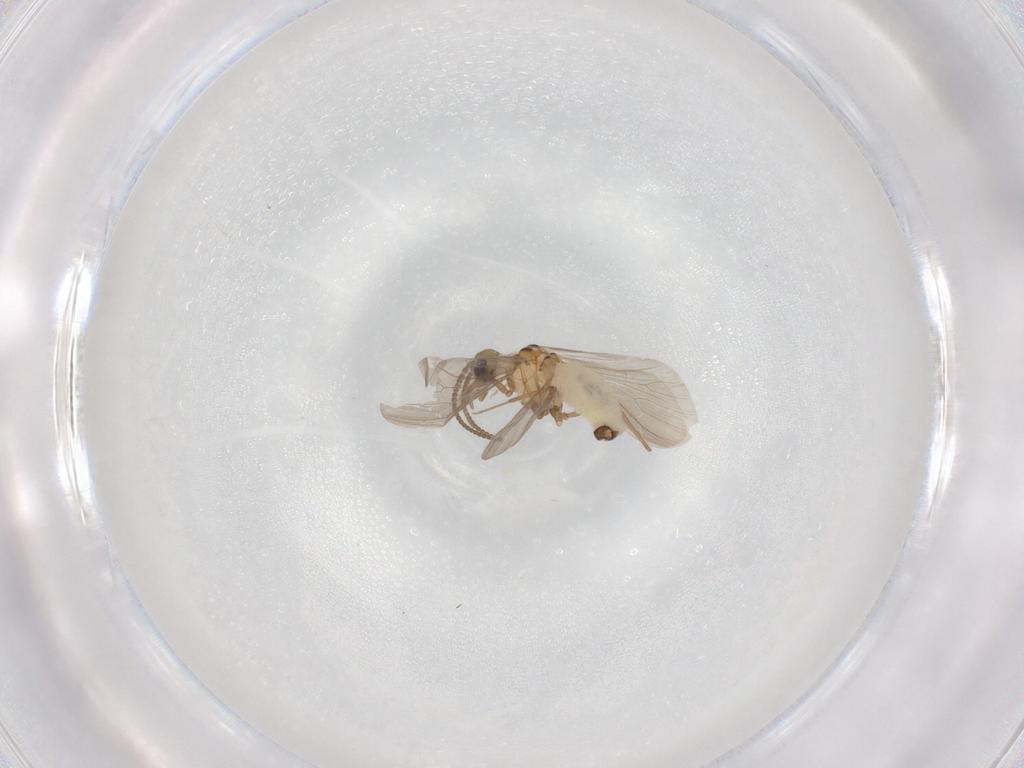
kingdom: Animalia
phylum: Arthropoda
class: Insecta
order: Neuroptera
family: Coniopterygidae
